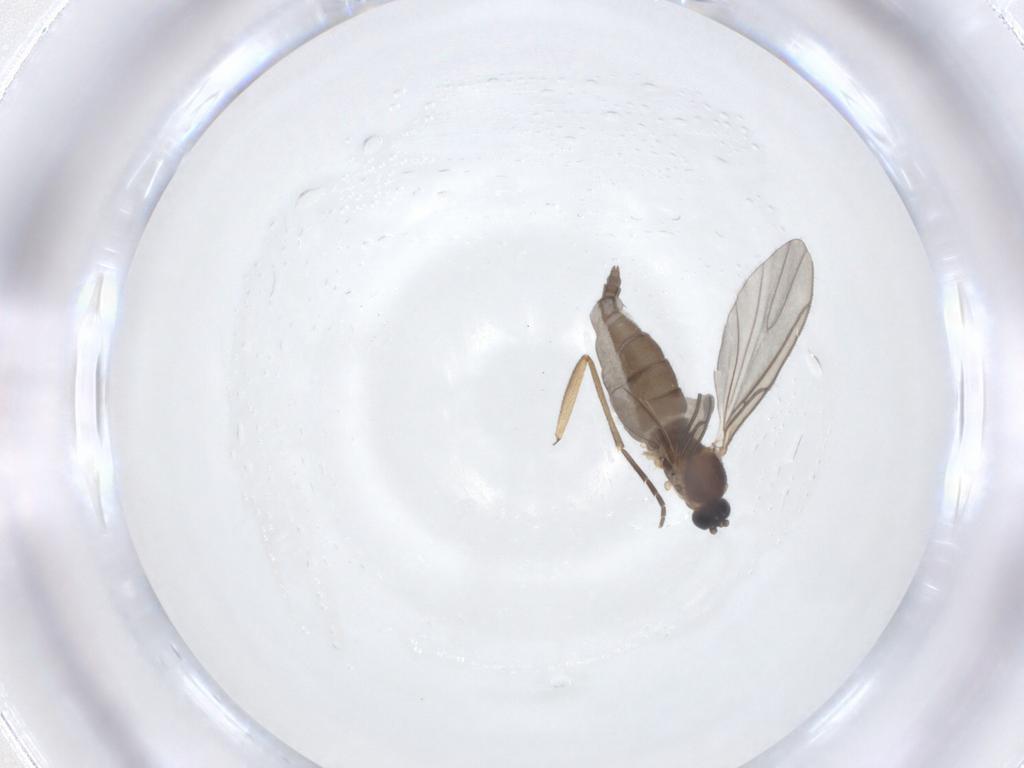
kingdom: Animalia
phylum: Arthropoda
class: Insecta
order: Diptera
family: Sciaridae
